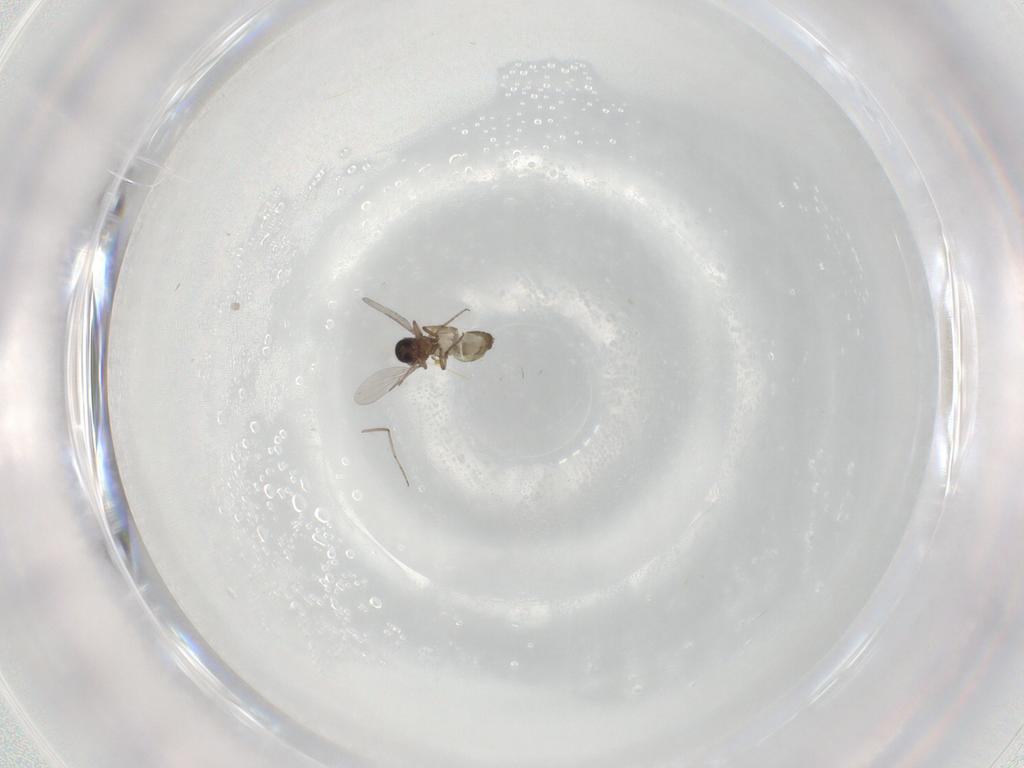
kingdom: Animalia
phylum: Arthropoda
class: Insecta
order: Diptera
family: Ceratopogonidae
